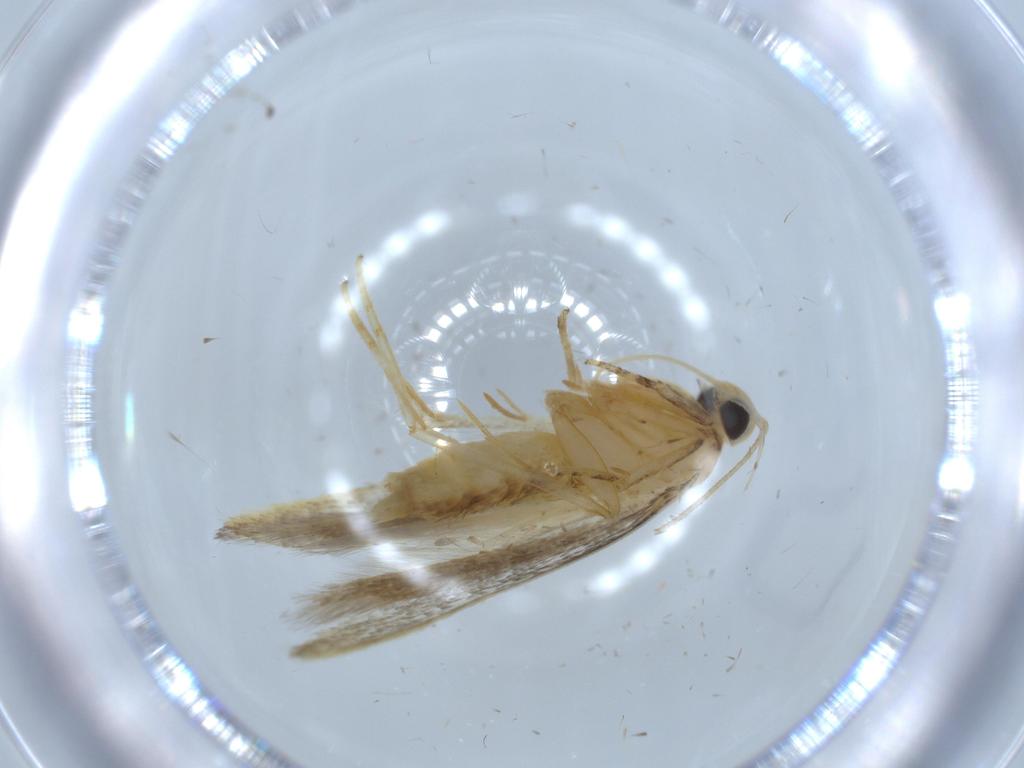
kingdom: Animalia
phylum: Arthropoda
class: Insecta
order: Lepidoptera
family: Autostichidae
